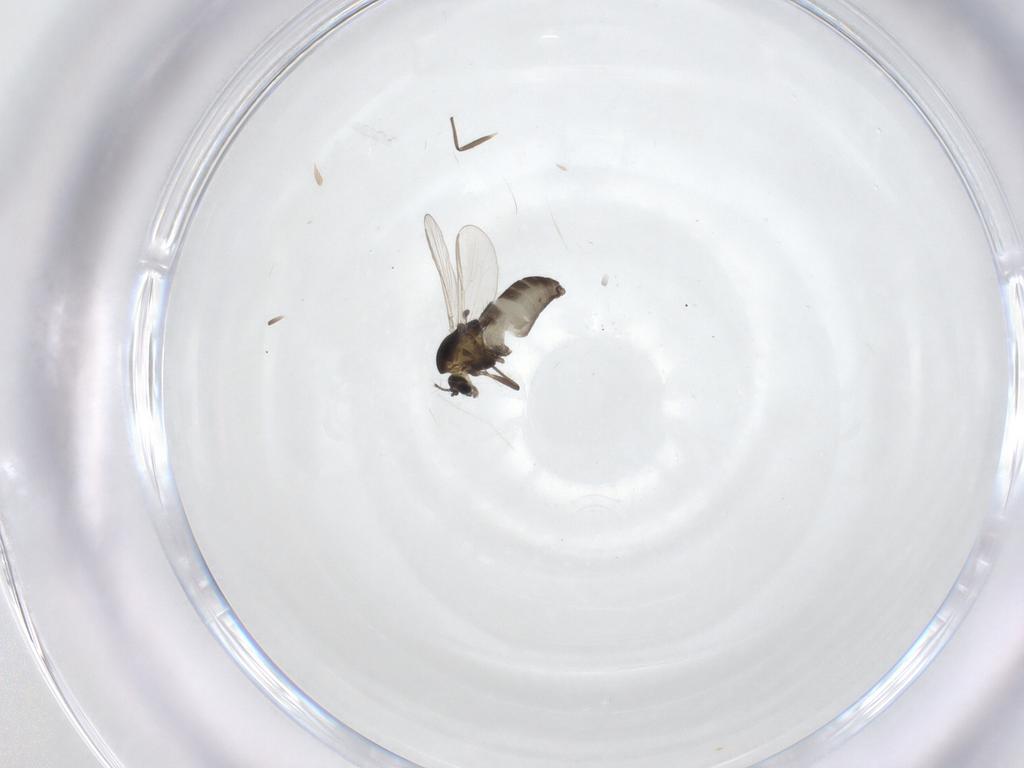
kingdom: Animalia
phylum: Arthropoda
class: Insecta
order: Diptera
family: Chironomidae
